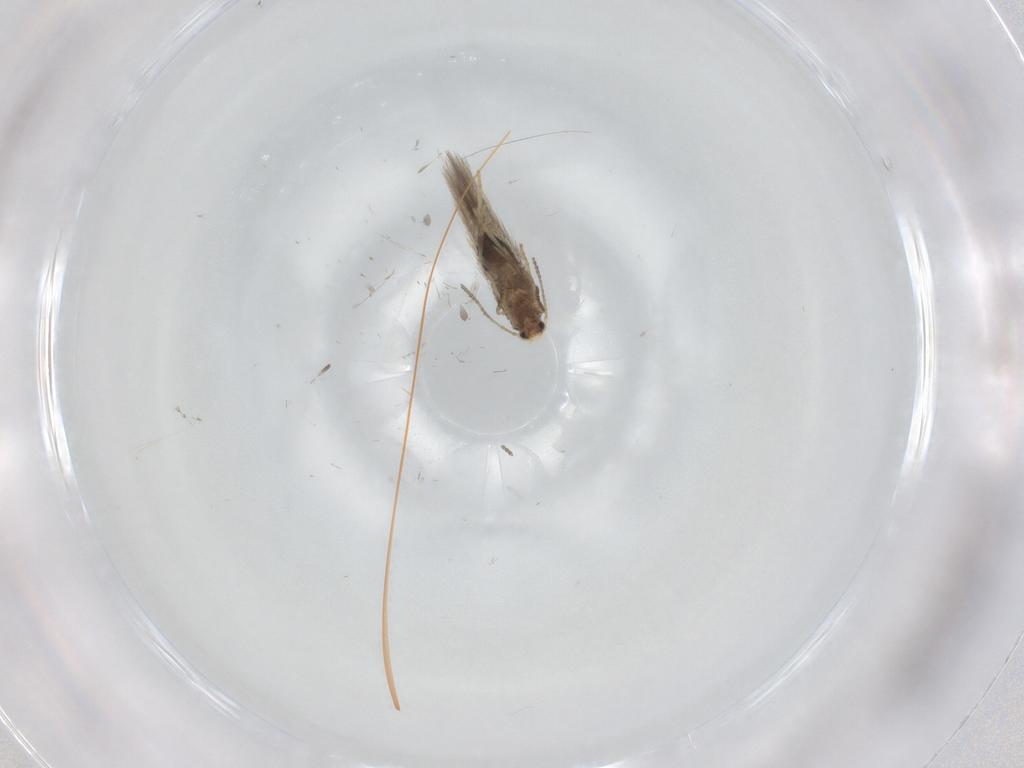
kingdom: Animalia
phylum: Arthropoda
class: Insecta
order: Lepidoptera
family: Nepticulidae
